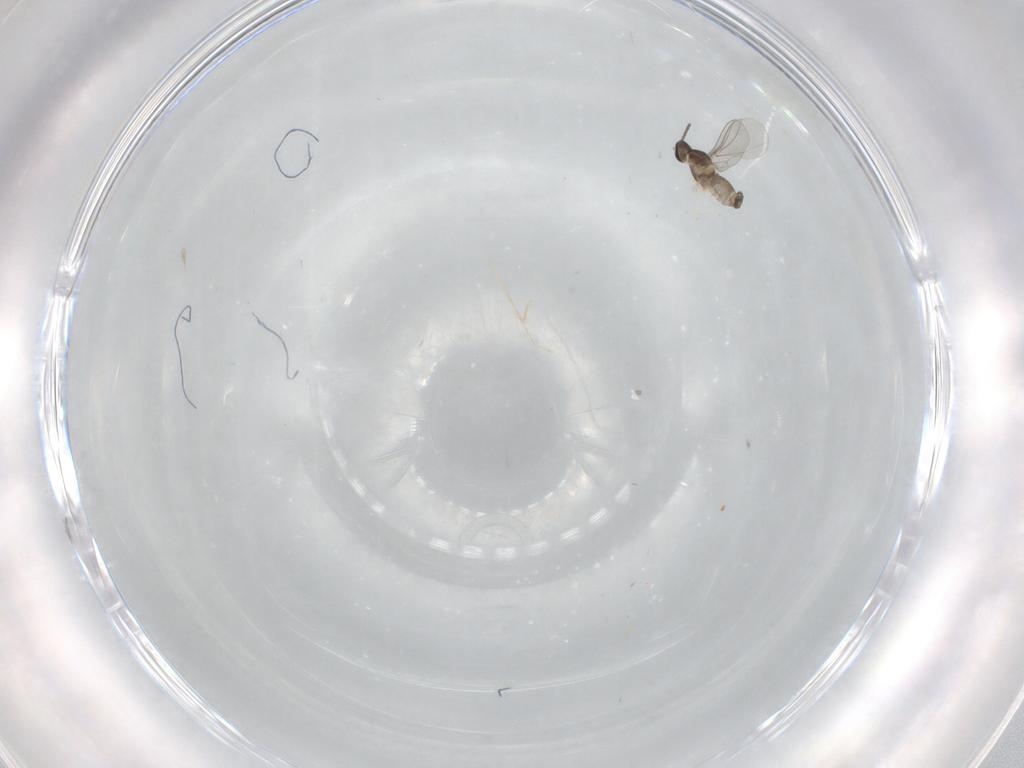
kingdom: Animalia
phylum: Arthropoda
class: Insecta
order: Diptera
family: Cecidomyiidae
